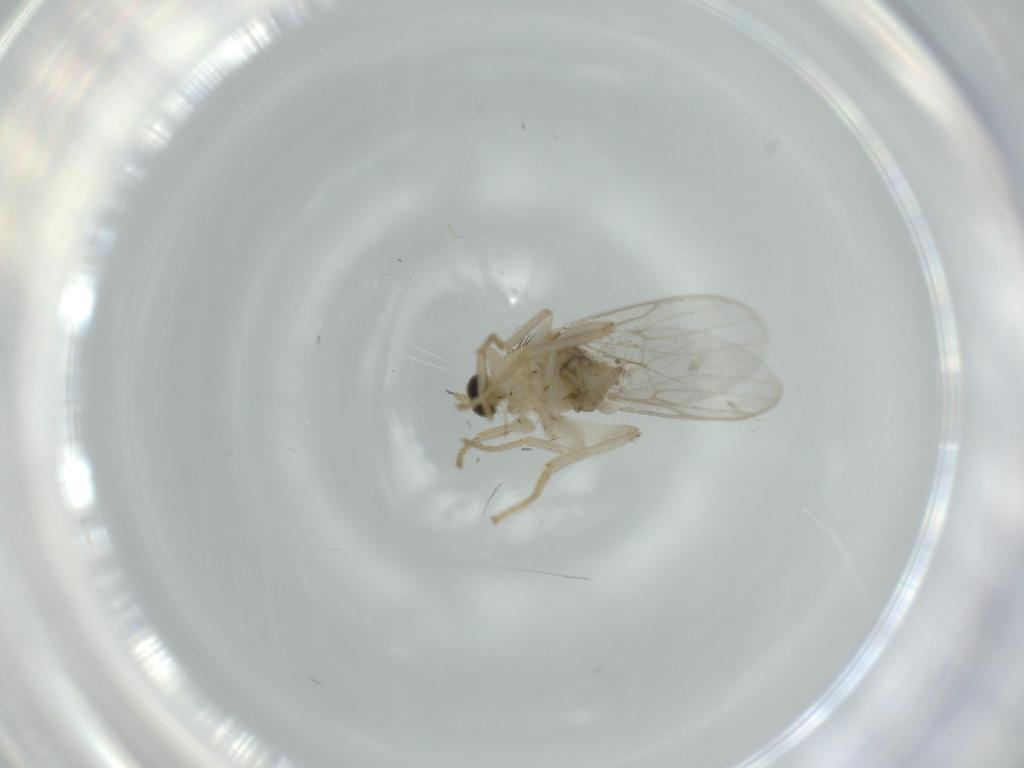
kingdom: Animalia
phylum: Arthropoda
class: Insecta
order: Diptera
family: Hybotidae
